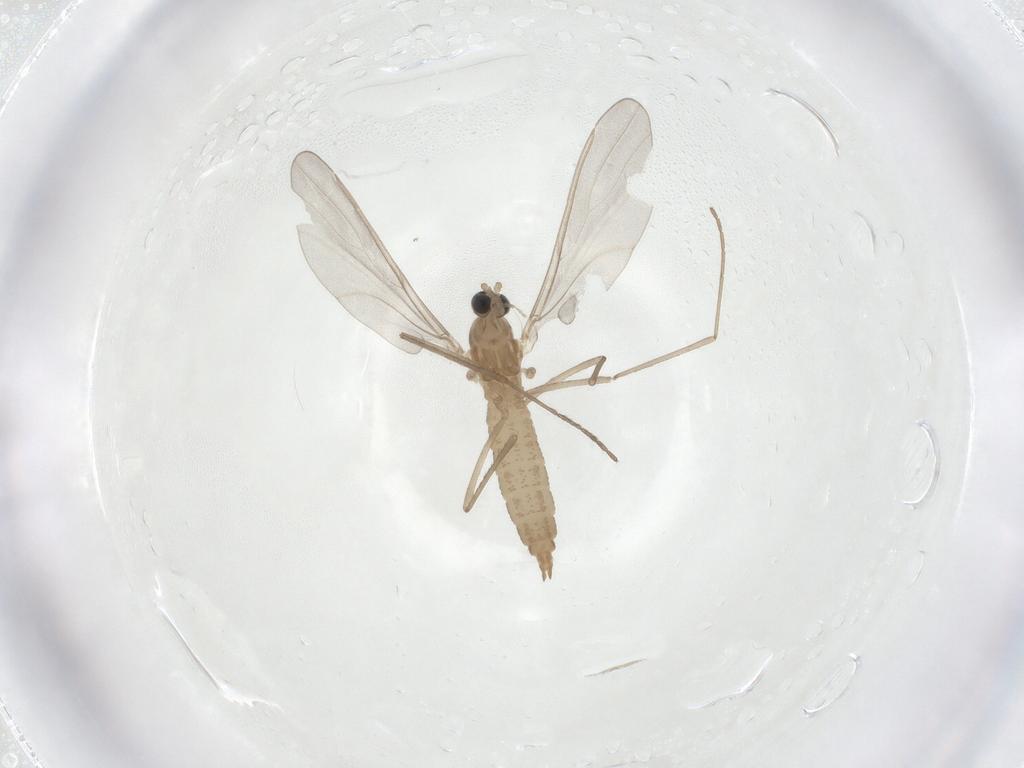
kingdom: Animalia
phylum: Arthropoda
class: Insecta
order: Diptera
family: Cecidomyiidae
